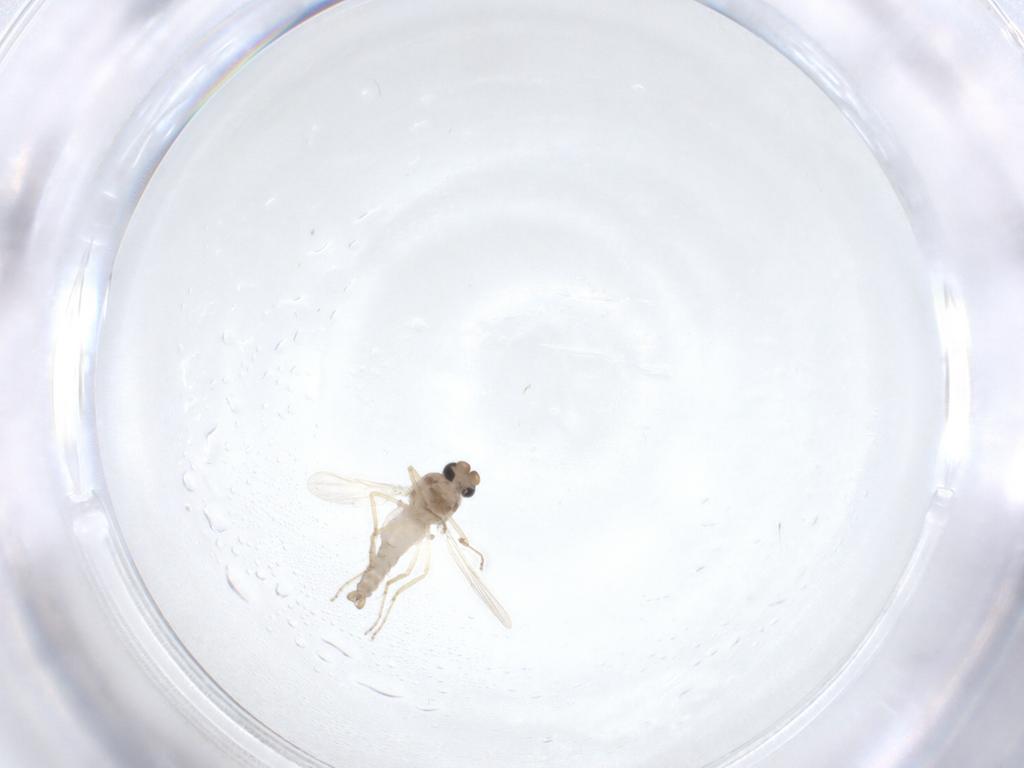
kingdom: Animalia
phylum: Arthropoda
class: Insecta
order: Diptera
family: Ceratopogonidae
